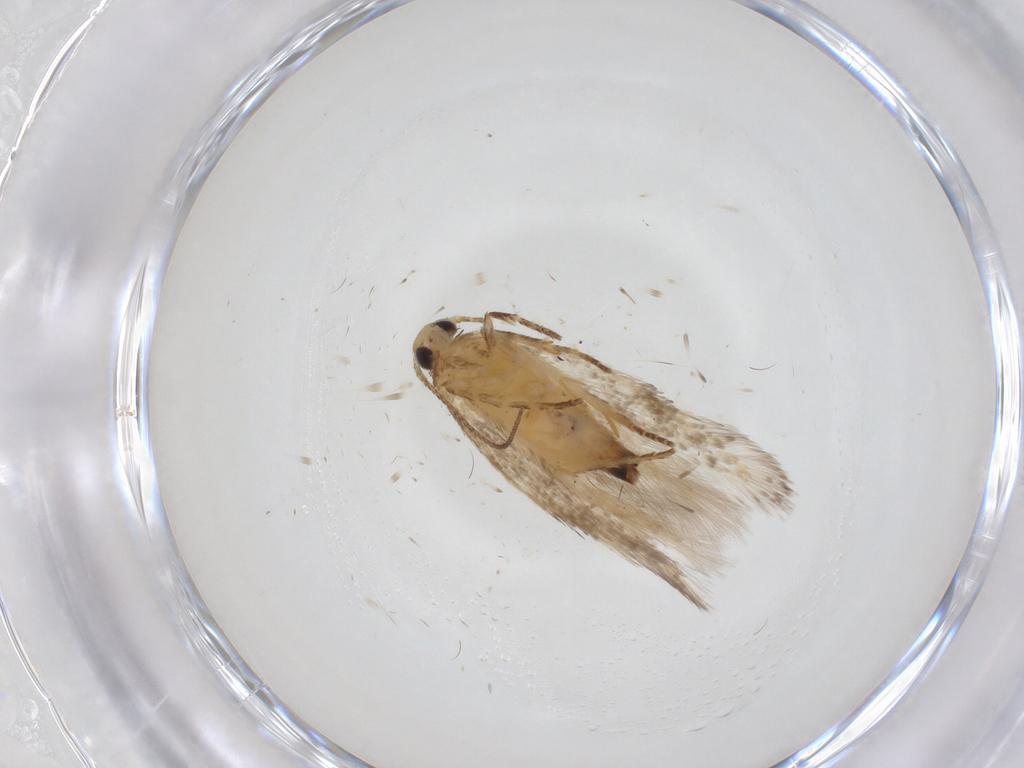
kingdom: Animalia
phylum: Arthropoda
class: Insecta
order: Lepidoptera
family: Gelechiidae
